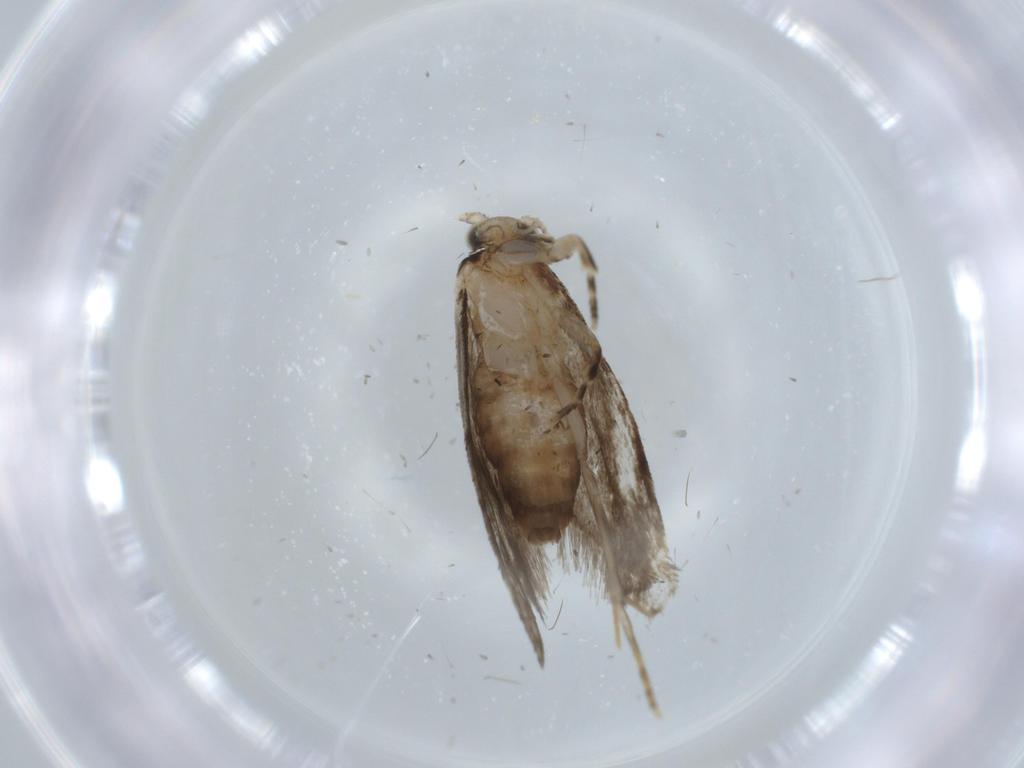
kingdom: Animalia
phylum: Arthropoda
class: Insecta
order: Lepidoptera
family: Tineidae
